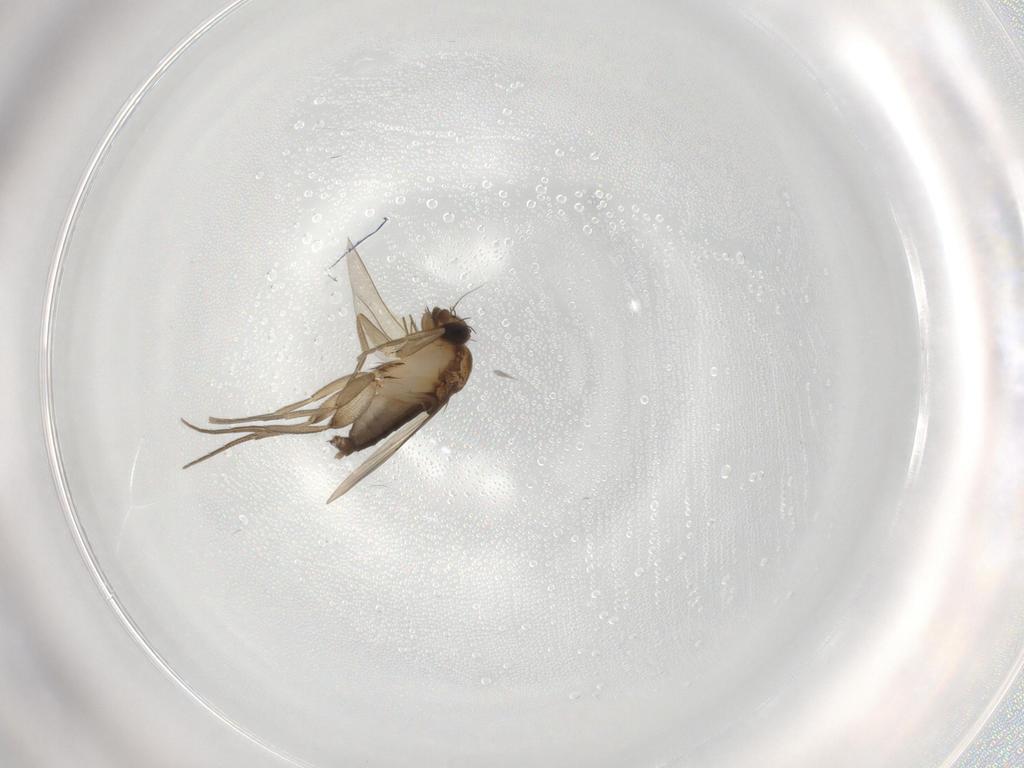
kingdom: Animalia
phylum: Arthropoda
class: Insecta
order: Diptera
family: Phoridae
